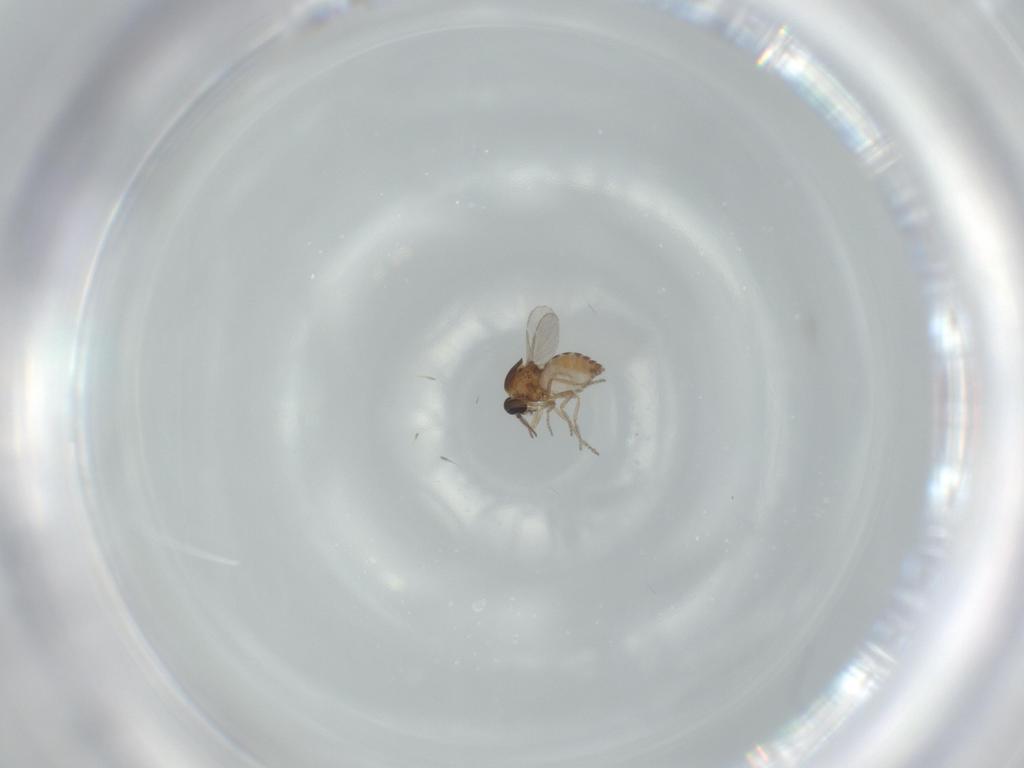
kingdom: Animalia
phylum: Arthropoda
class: Insecta
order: Diptera
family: Ceratopogonidae
